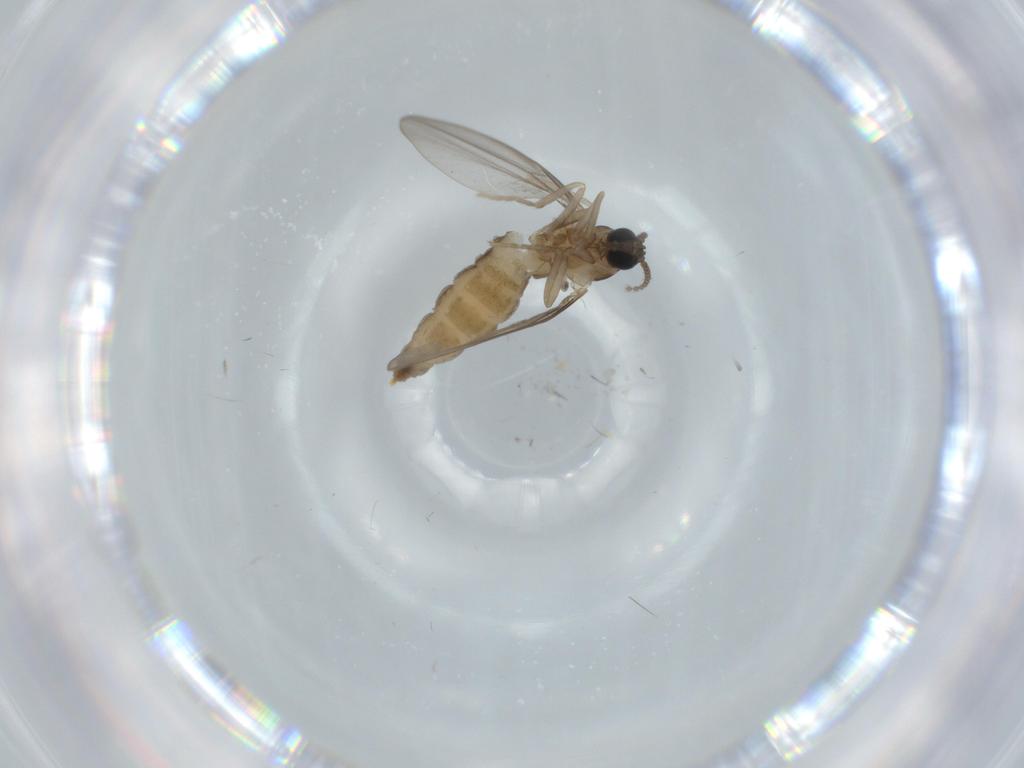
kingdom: Animalia
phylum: Arthropoda
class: Insecta
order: Diptera
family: Cecidomyiidae
